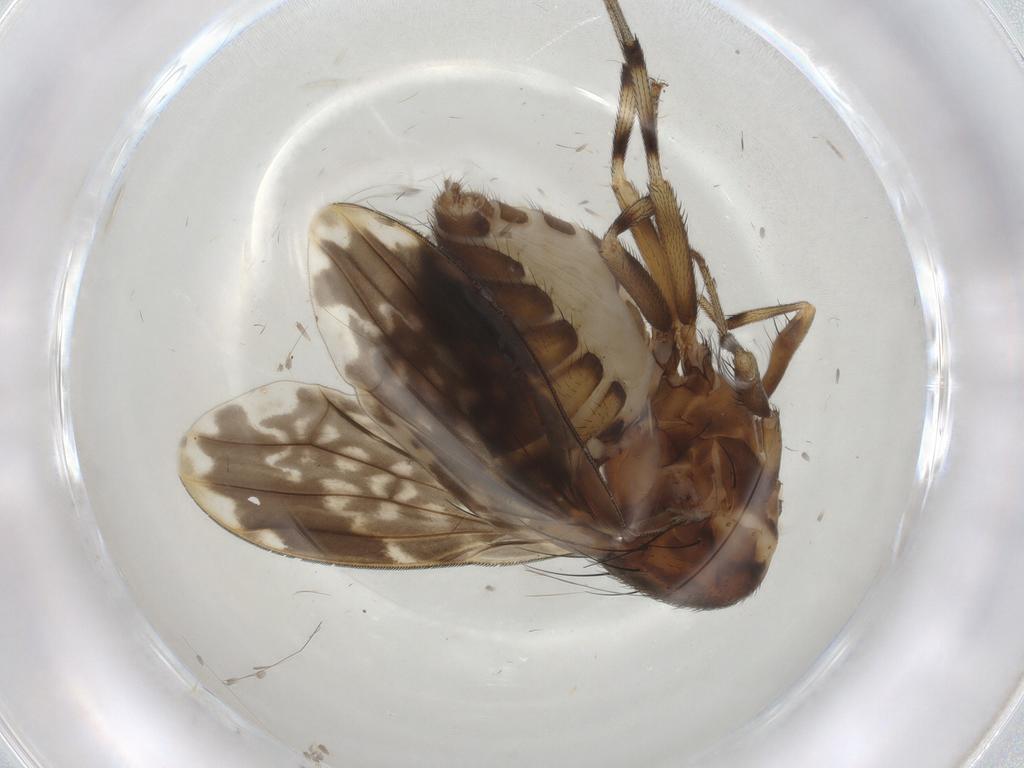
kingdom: Animalia
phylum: Arthropoda
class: Insecta
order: Diptera
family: Lauxaniidae
